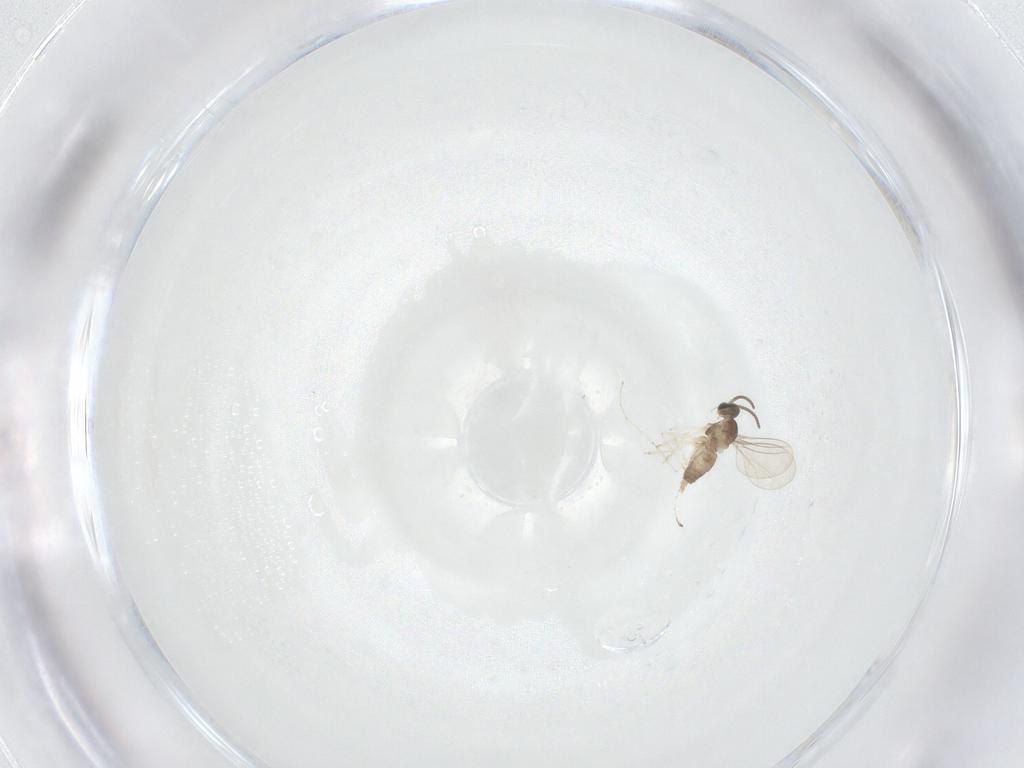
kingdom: Animalia
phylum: Arthropoda
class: Insecta
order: Diptera
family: Cecidomyiidae
